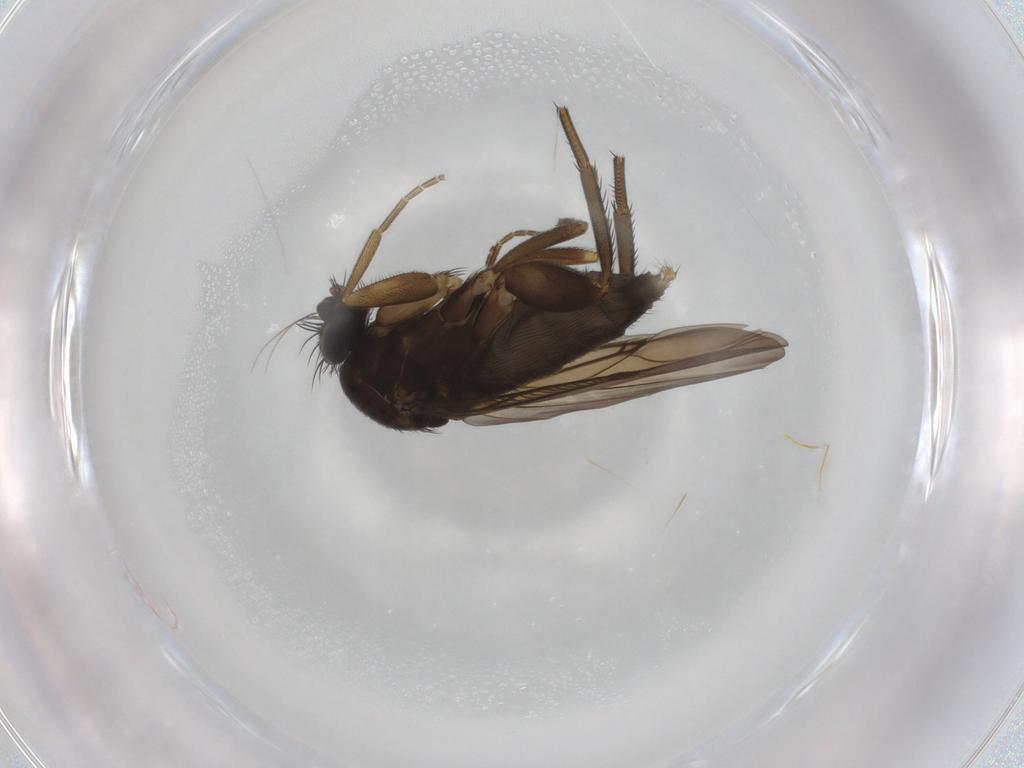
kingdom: Animalia
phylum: Arthropoda
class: Insecta
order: Diptera
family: Phoridae
